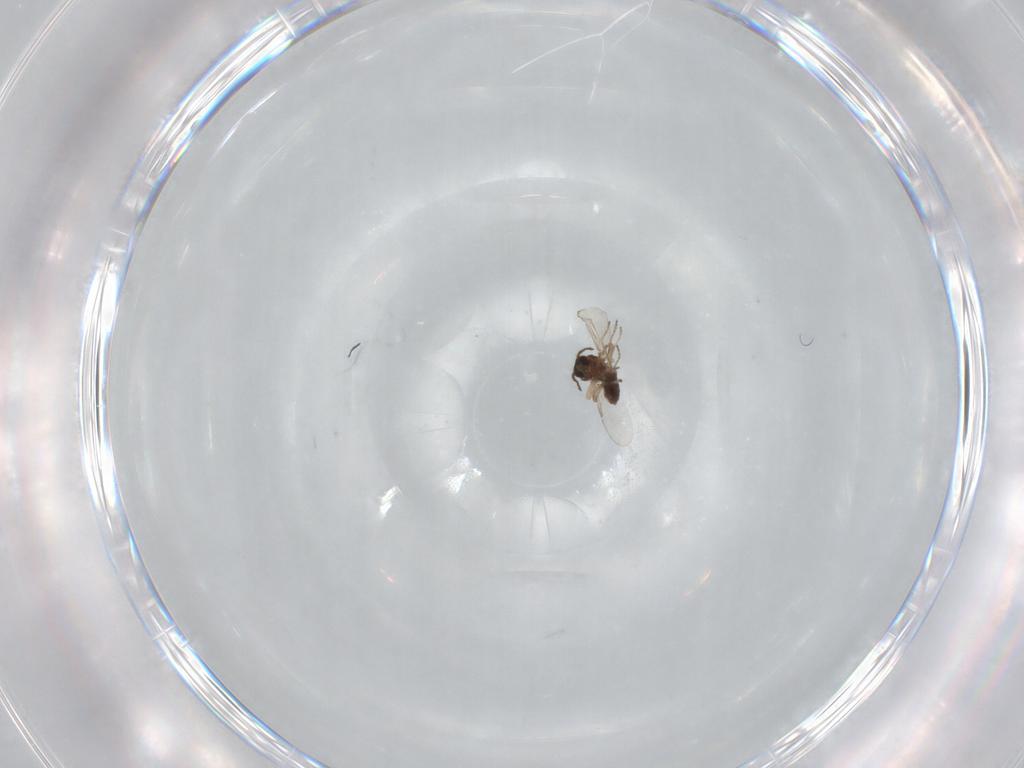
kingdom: Animalia
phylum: Arthropoda
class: Insecta
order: Diptera
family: Ceratopogonidae
